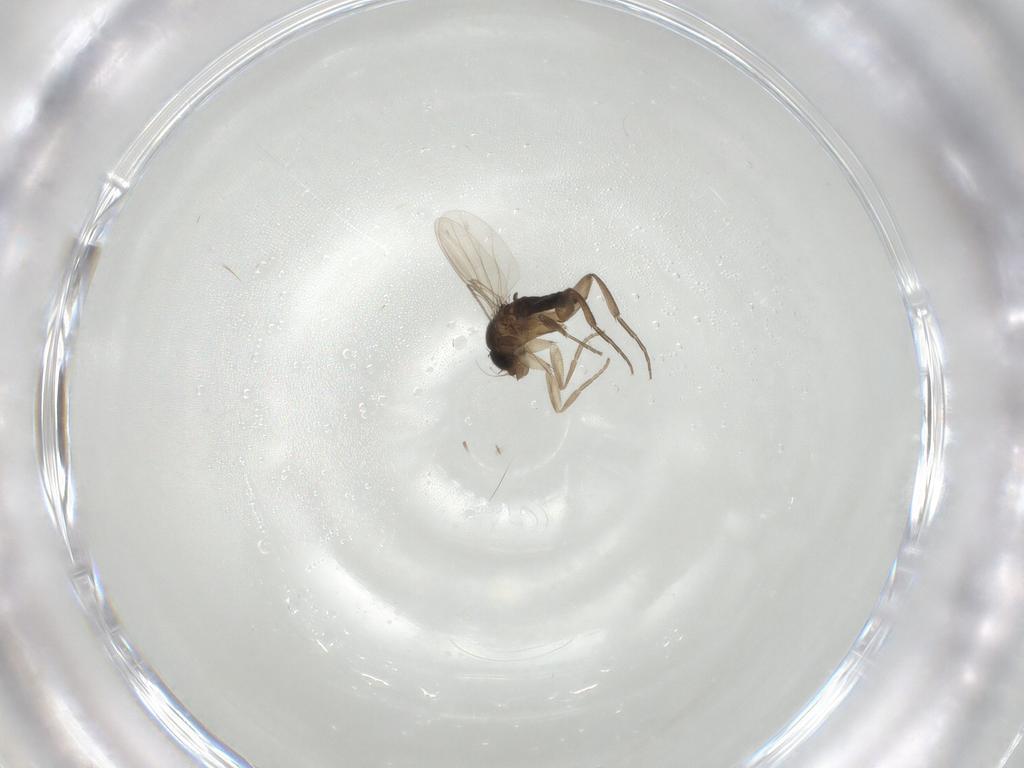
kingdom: Animalia
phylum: Arthropoda
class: Insecta
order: Diptera
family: Phoridae
